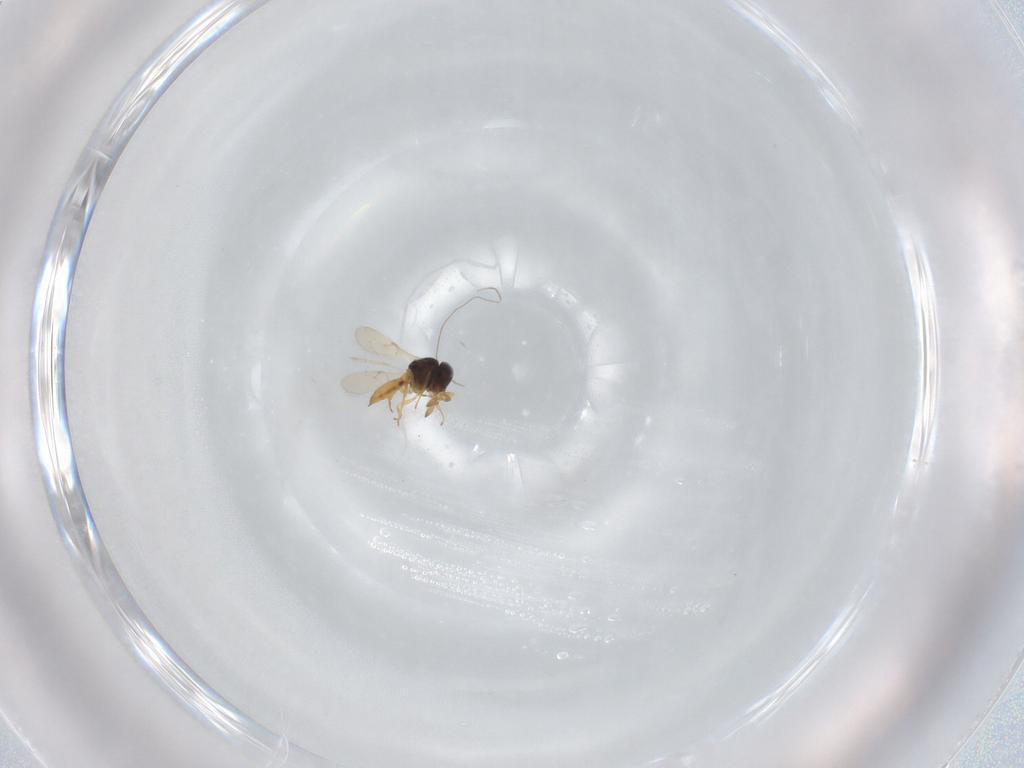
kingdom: Animalia
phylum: Arthropoda
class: Insecta
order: Hymenoptera
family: Scelionidae
